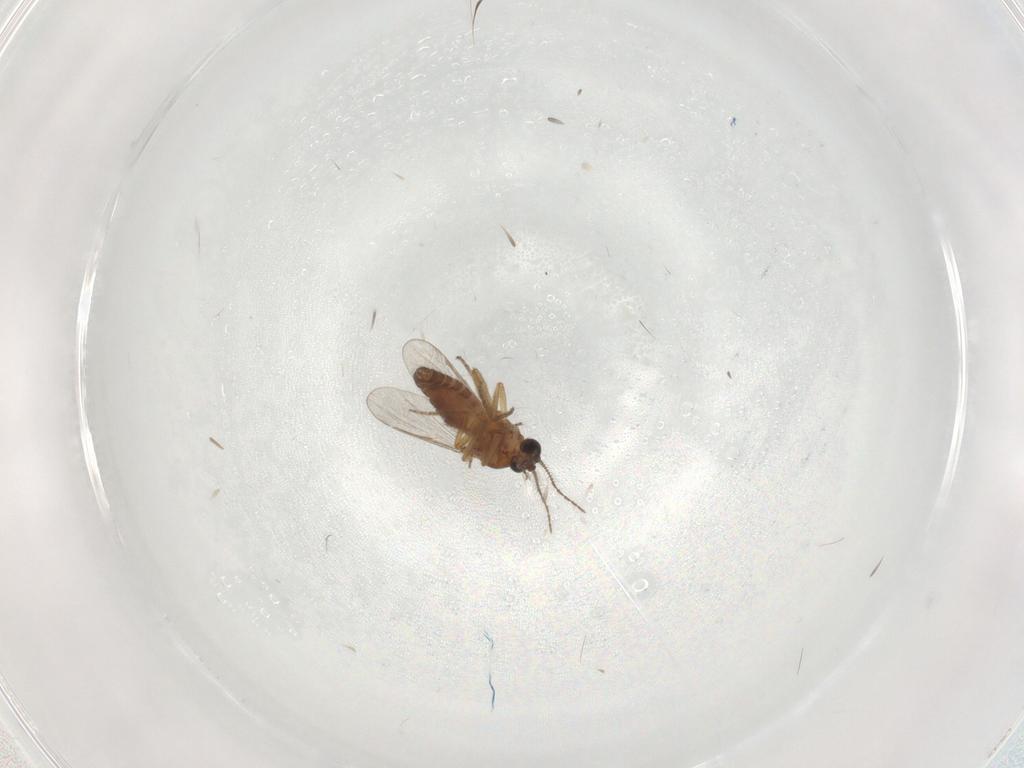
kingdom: Animalia
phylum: Arthropoda
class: Insecta
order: Diptera
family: Ceratopogonidae
